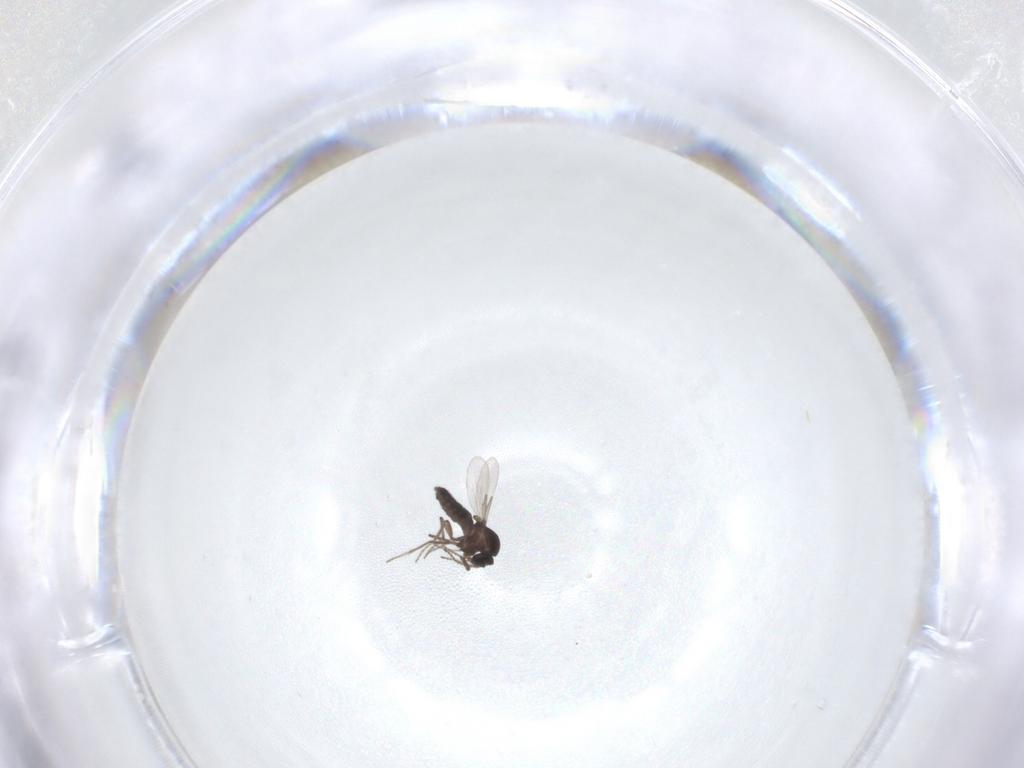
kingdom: Animalia
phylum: Arthropoda
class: Insecta
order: Diptera
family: Ceratopogonidae
